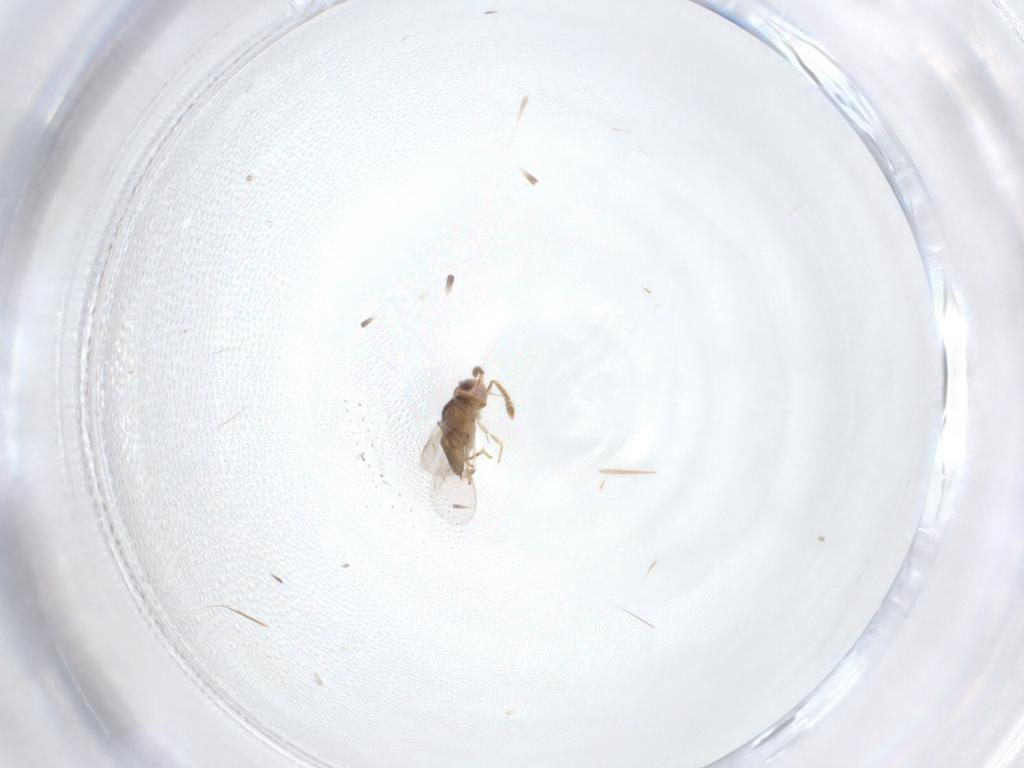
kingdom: Animalia
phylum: Arthropoda
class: Insecta
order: Hymenoptera
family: Encyrtidae
